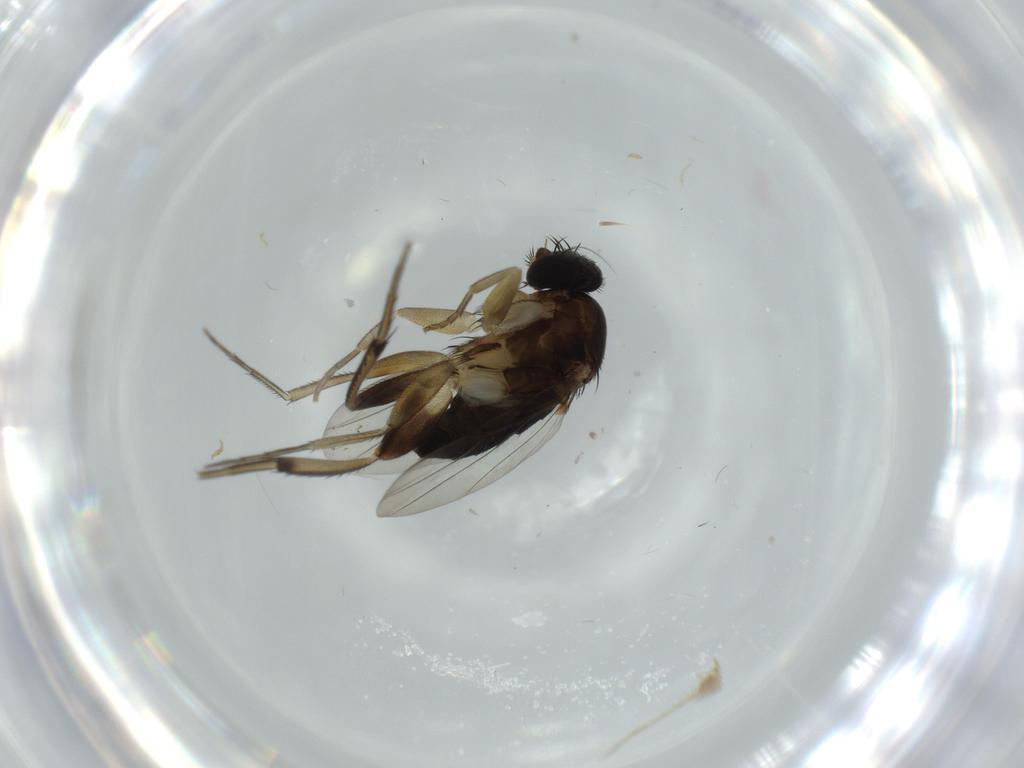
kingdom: Animalia
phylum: Arthropoda
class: Insecta
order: Diptera
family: Phoridae
